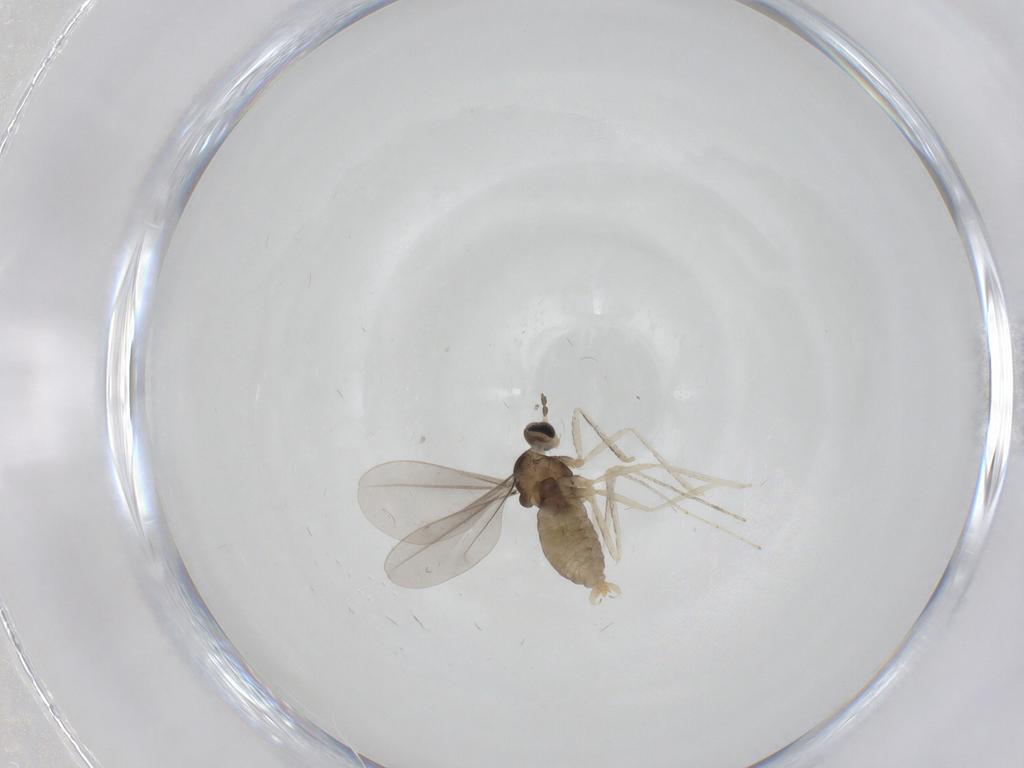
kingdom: Animalia
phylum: Arthropoda
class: Insecta
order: Diptera
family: Cecidomyiidae
